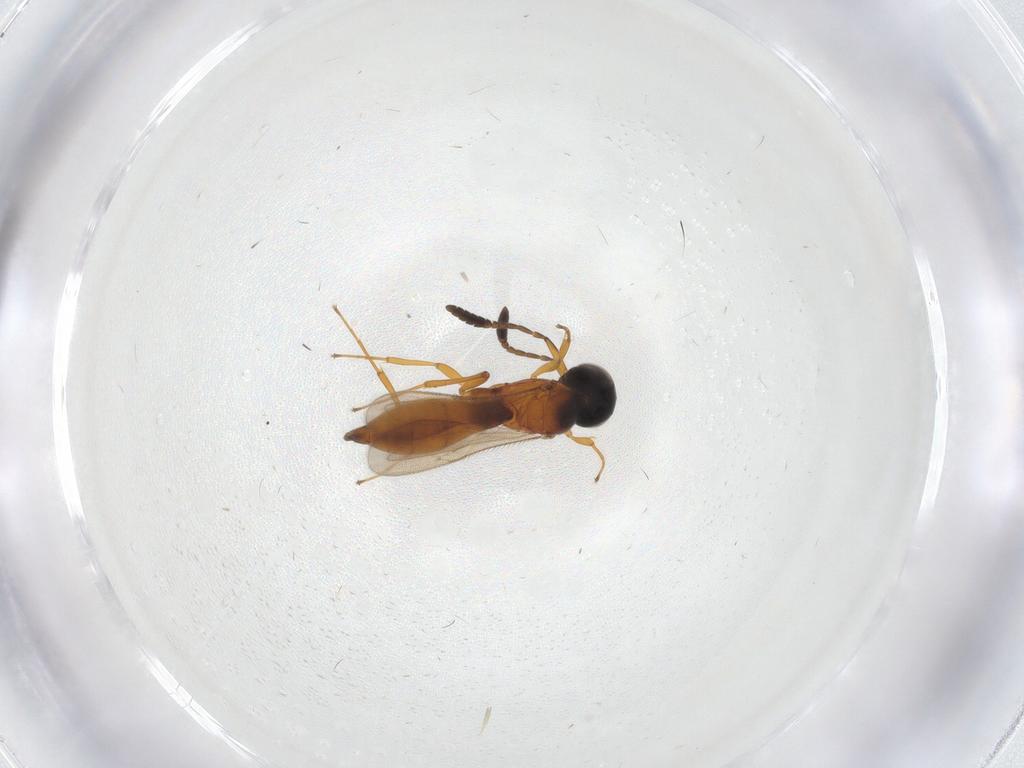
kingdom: Animalia
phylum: Arthropoda
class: Insecta
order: Hymenoptera
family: Scelionidae
